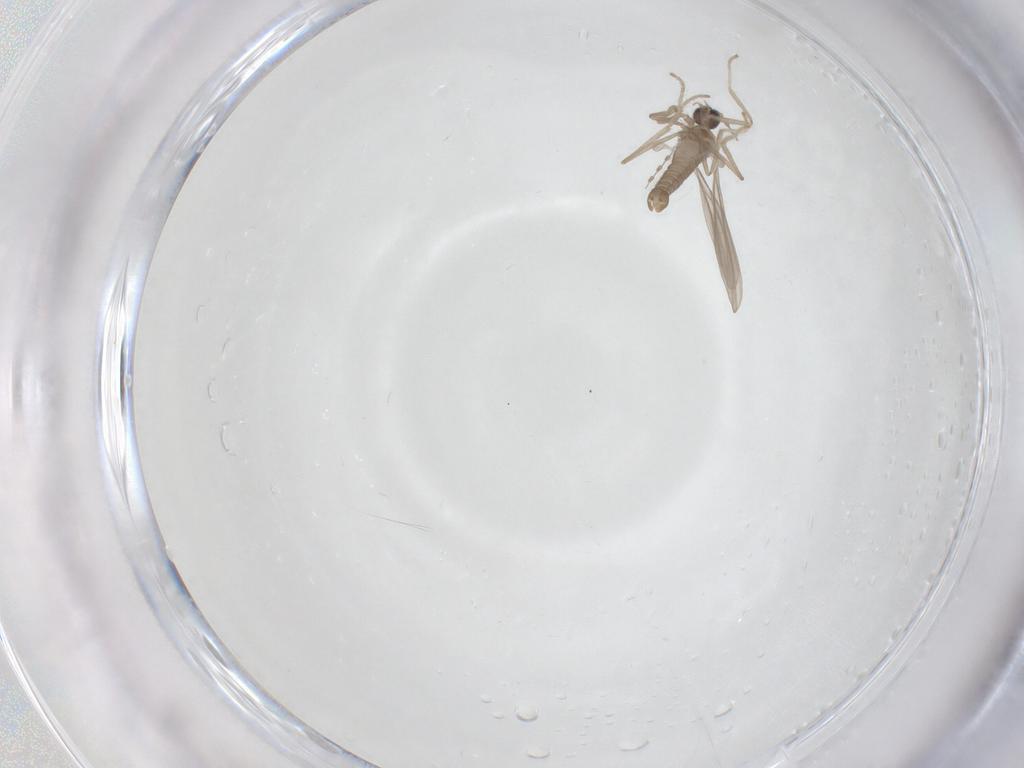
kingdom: Animalia
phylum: Arthropoda
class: Insecta
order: Diptera
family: Cecidomyiidae
